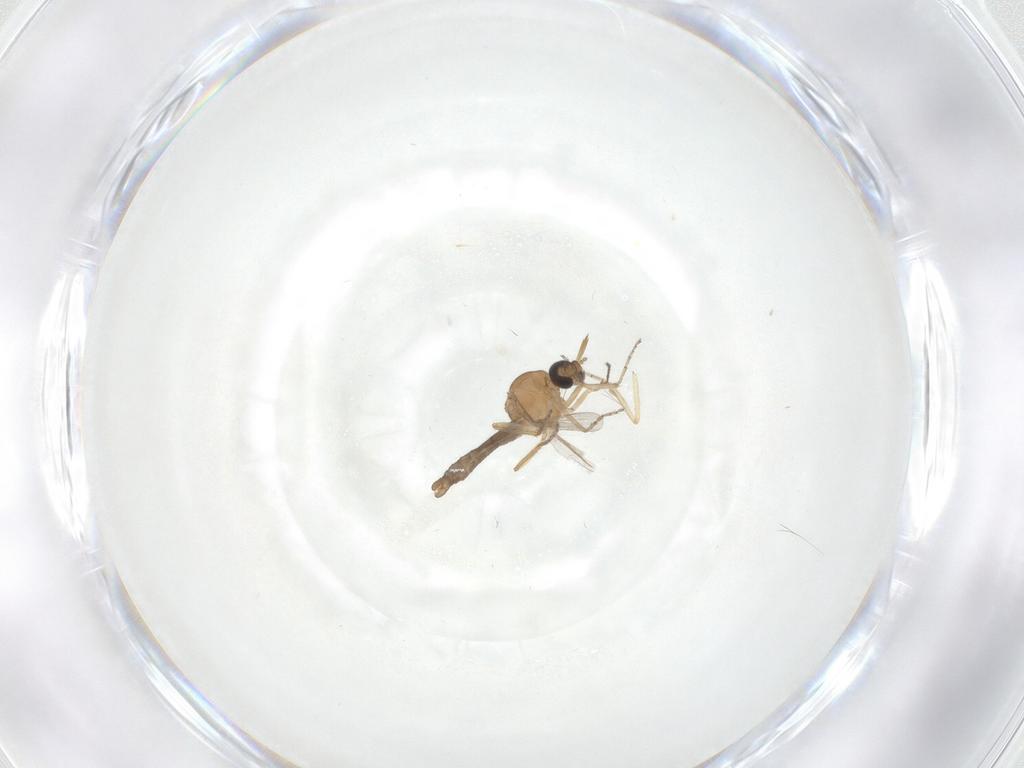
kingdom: Animalia
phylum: Arthropoda
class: Insecta
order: Diptera
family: Ceratopogonidae
